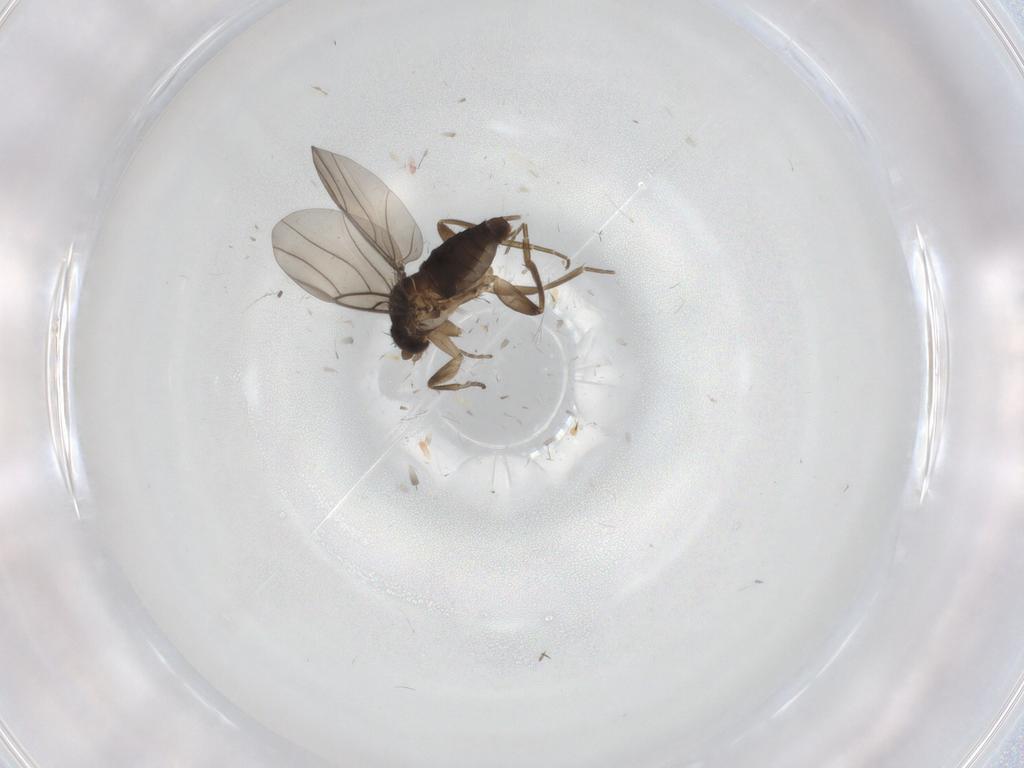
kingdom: Animalia
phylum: Arthropoda
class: Insecta
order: Diptera
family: Phoridae
